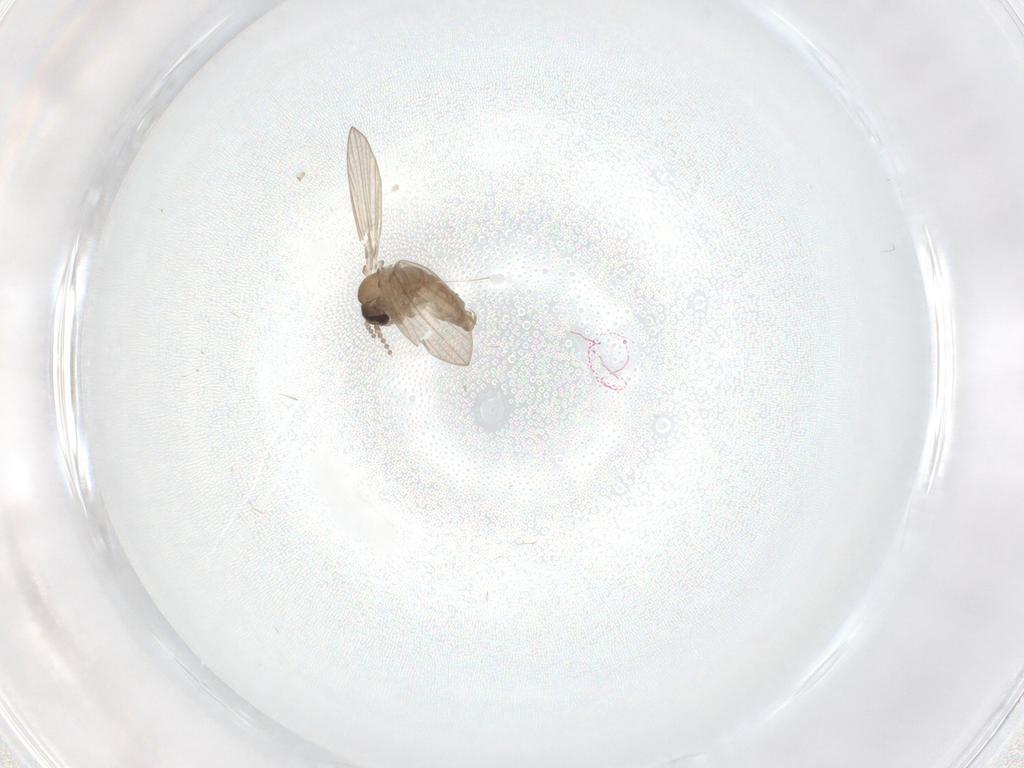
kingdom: Animalia
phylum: Arthropoda
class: Insecta
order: Diptera
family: Psychodidae
